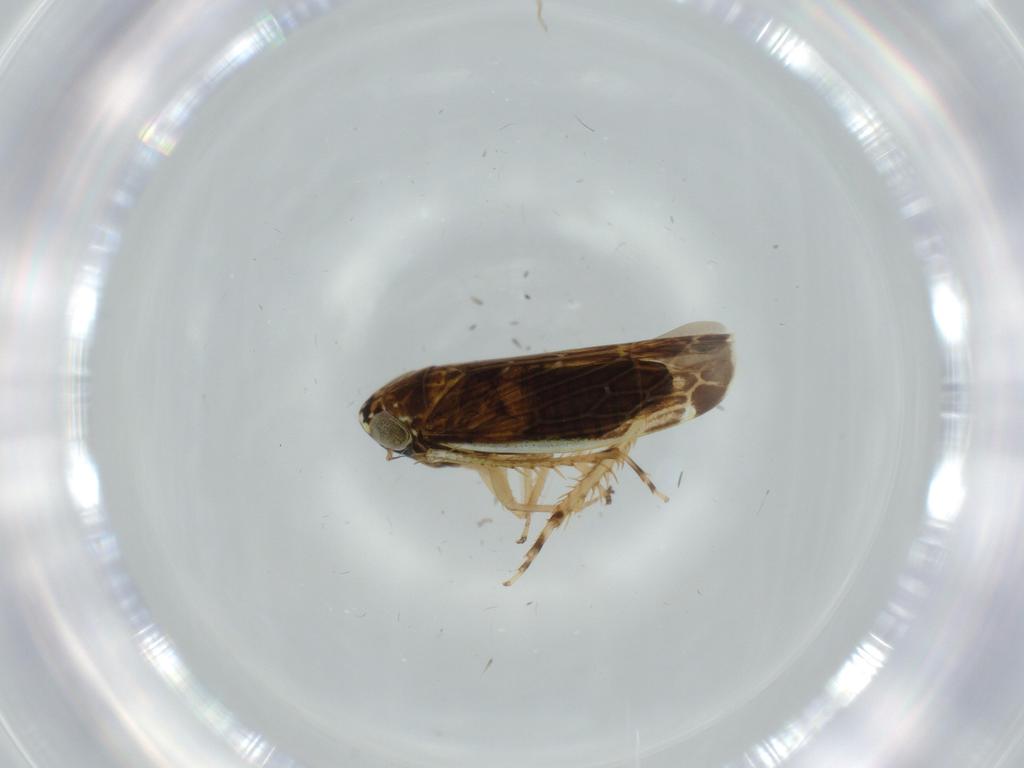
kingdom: Animalia
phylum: Arthropoda
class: Insecta
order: Hemiptera
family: Cicadellidae
